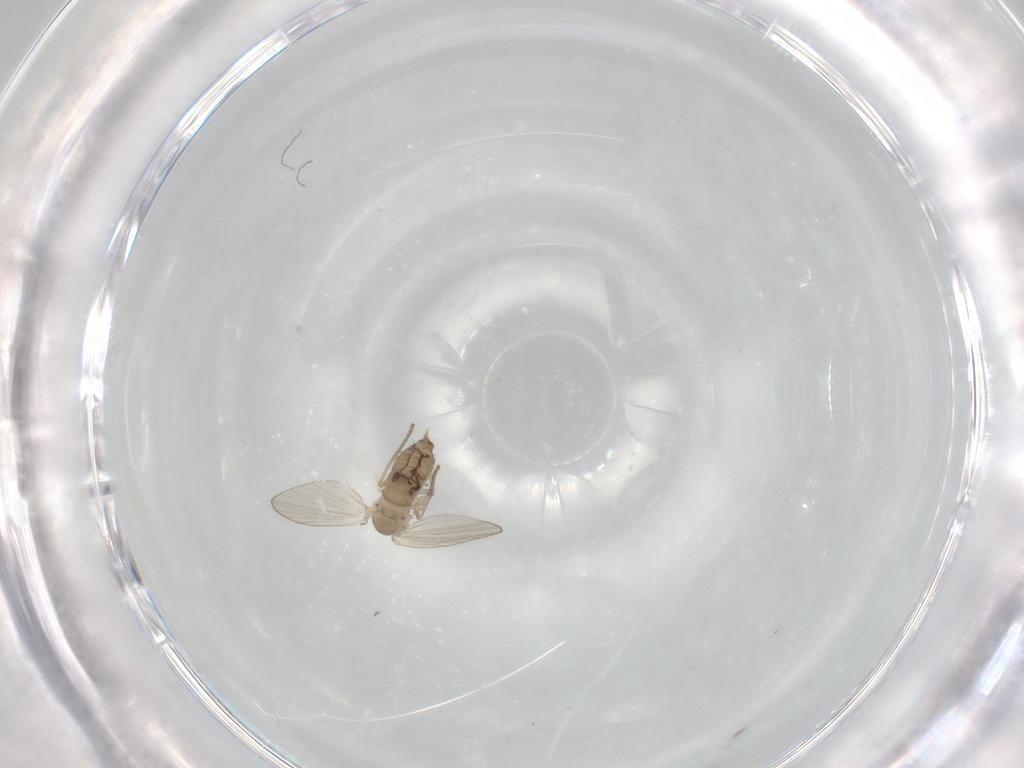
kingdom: Animalia
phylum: Arthropoda
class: Insecta
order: Diptera
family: Psychodidae
